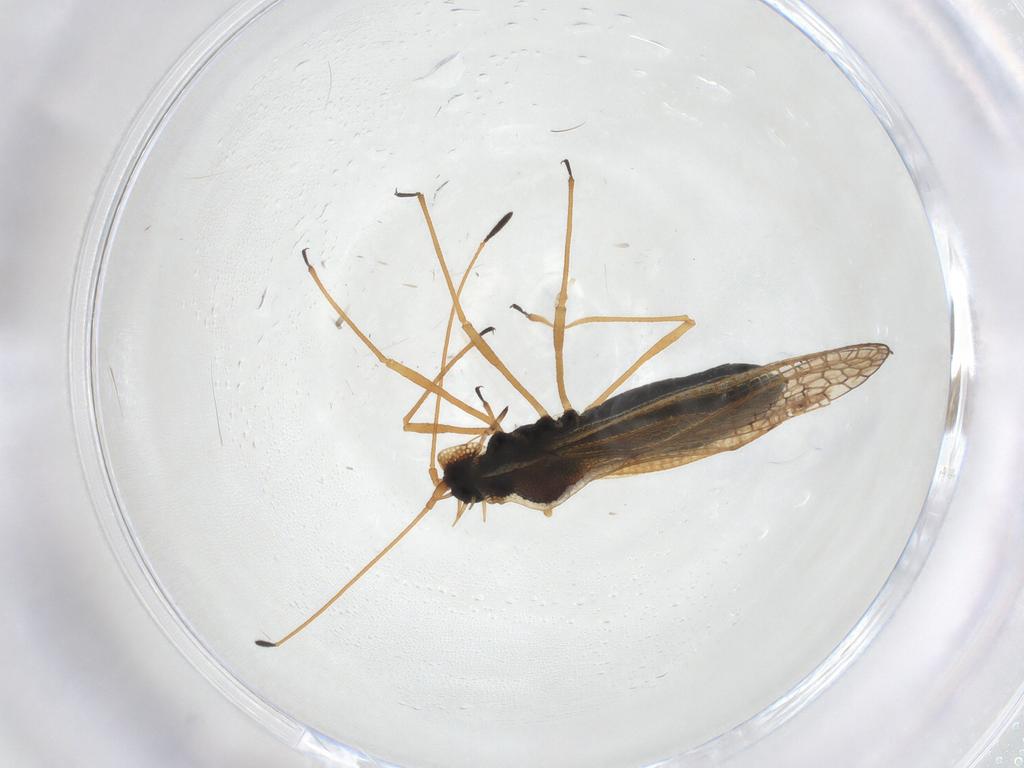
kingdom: Animalia
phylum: Arthropoda
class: Insecta
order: Hemiptera
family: Tingidae
